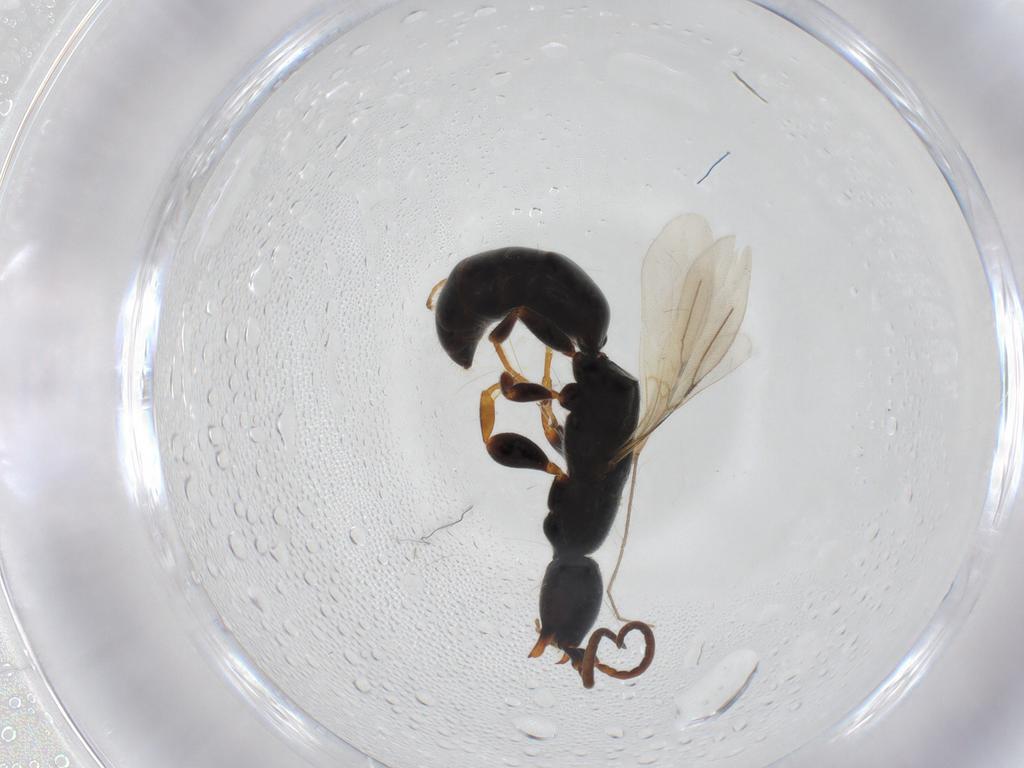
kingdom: Animalia
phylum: Arthropoda
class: Insecta
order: Hymenoptera
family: Bethylidae
